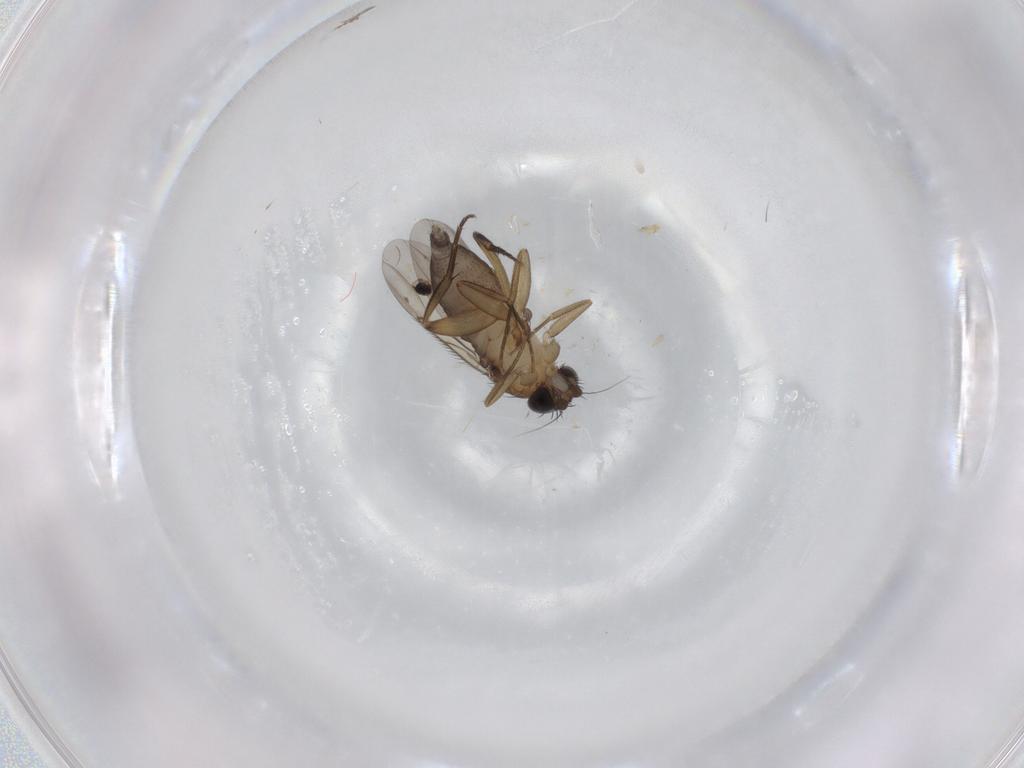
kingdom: Animalia
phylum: Arthropoda
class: Insecta
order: Diptera
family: Phoridae
